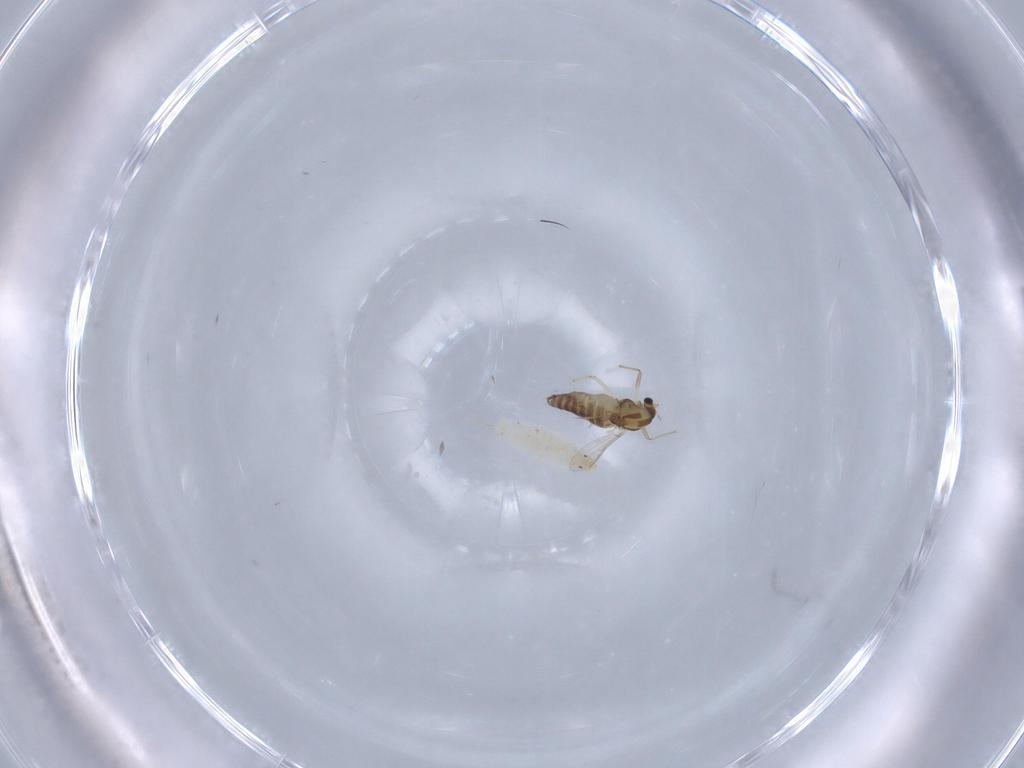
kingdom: Animalia
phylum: Arthropoda
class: Insecta
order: Diptera
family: Chironomidae
